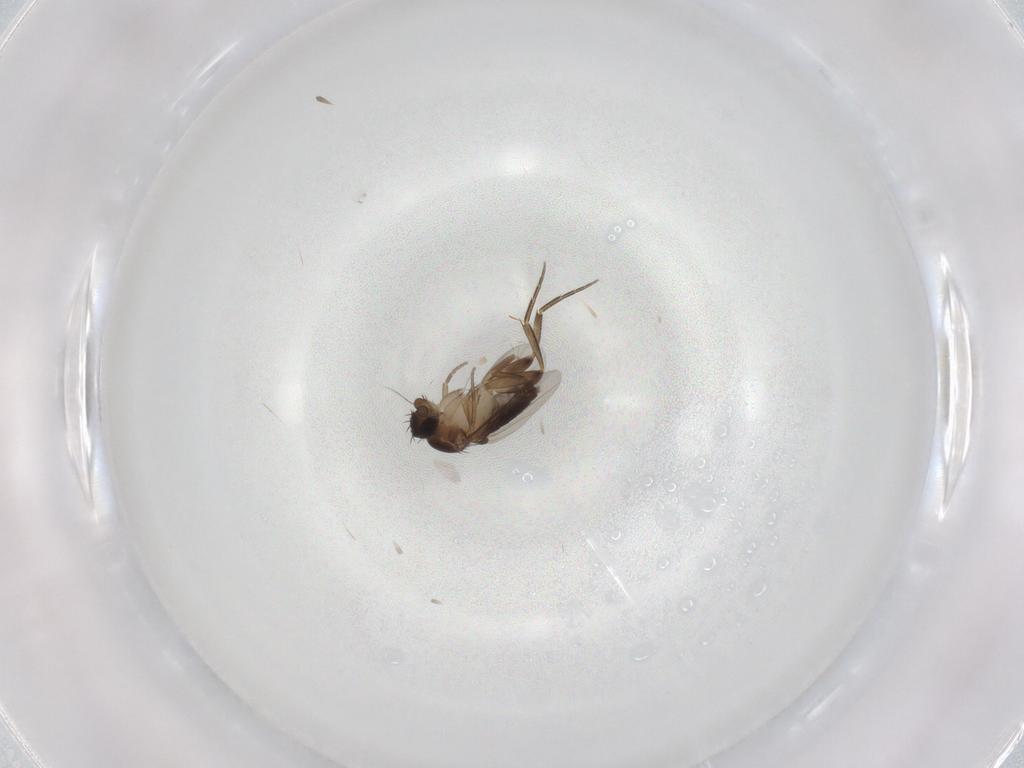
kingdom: Animalia
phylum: Arthropoda
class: Insecta
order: Diptera
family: Phoridae
